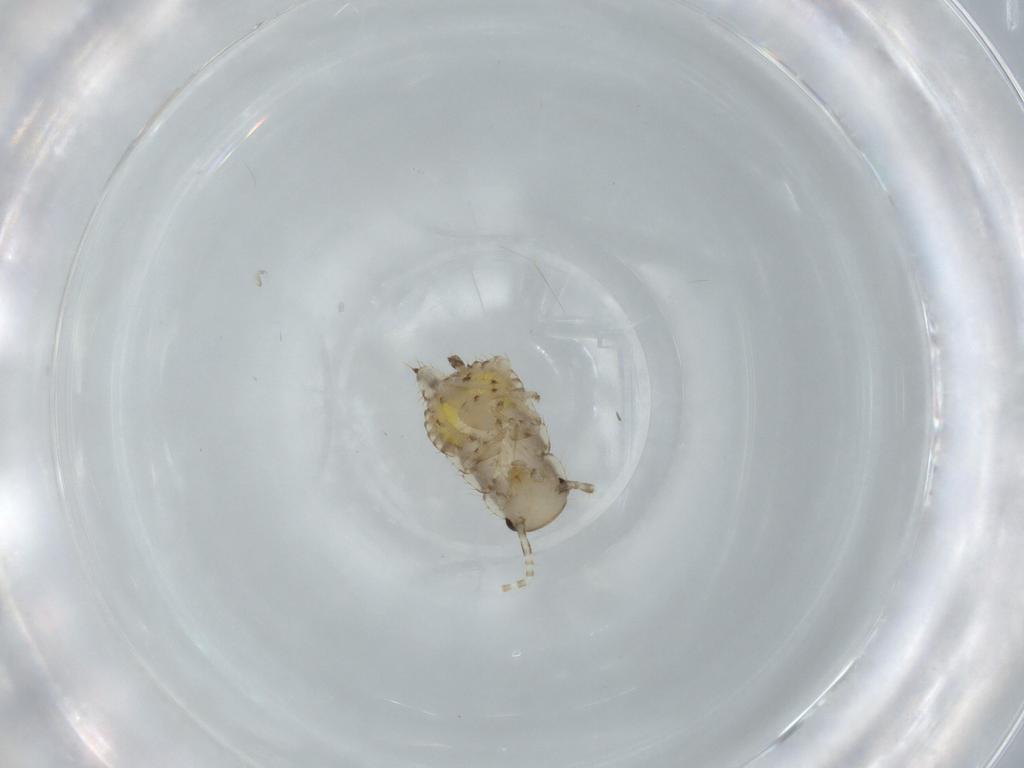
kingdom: Animalia
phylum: Arthropoda
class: Insecta
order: Blattodea
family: Ectobiidae
